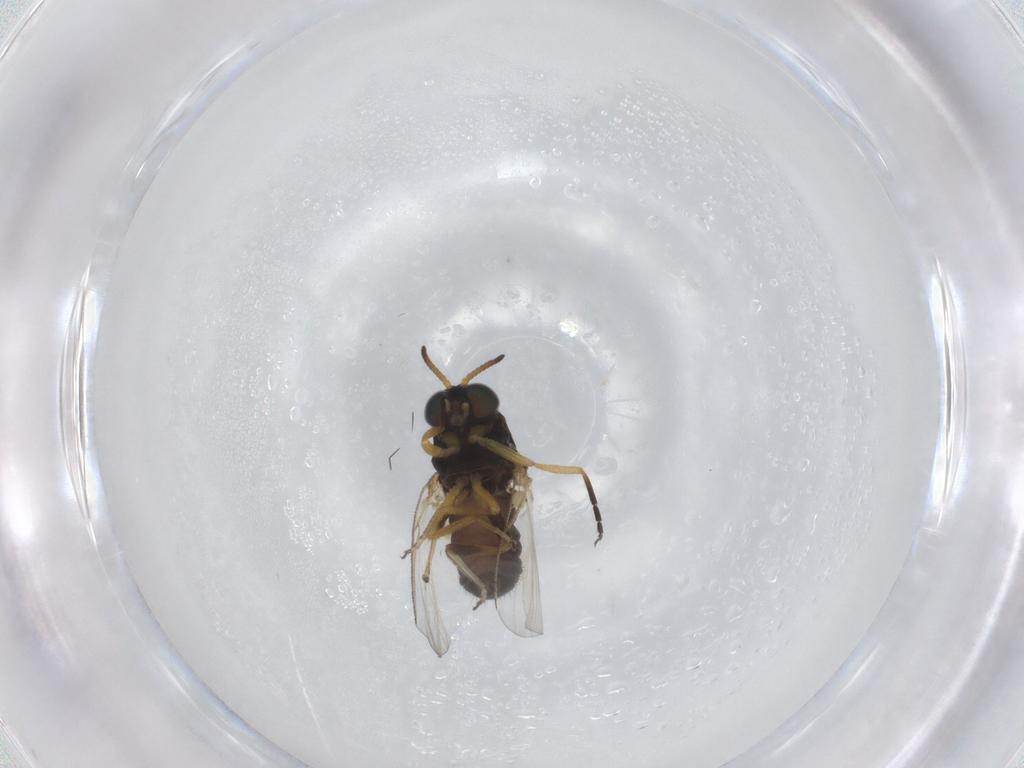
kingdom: Animalia
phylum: Arthropoda
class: Insecta
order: Diptera
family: Simuliidae
